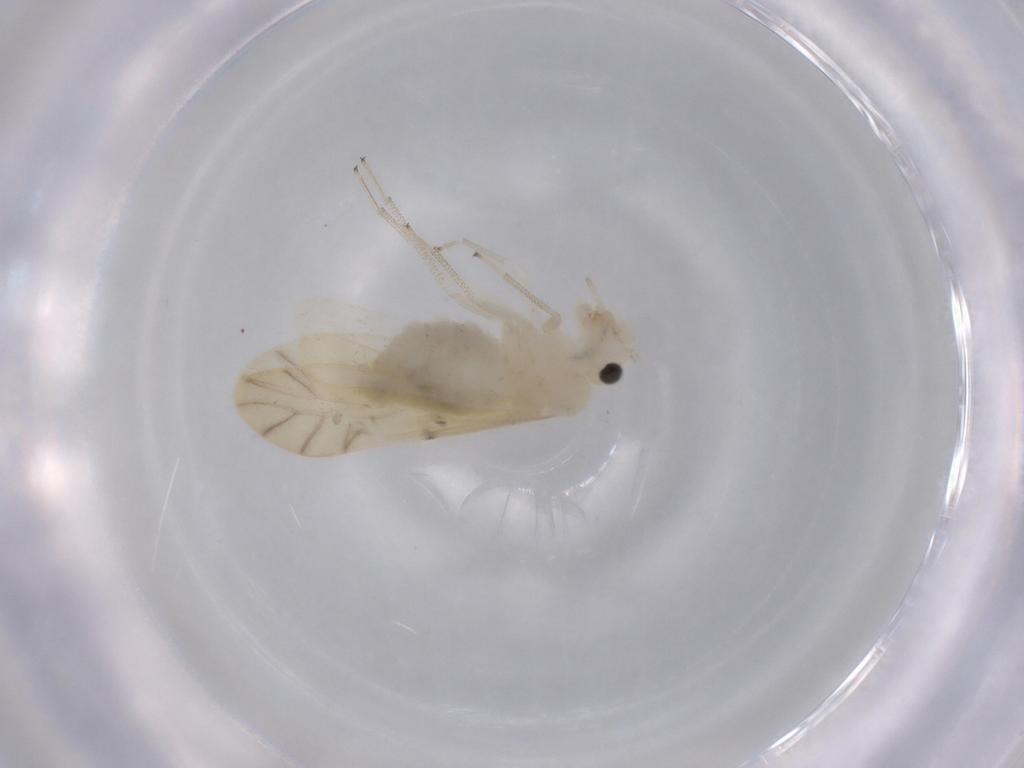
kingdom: Animalia
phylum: Arthropoda
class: Insecta
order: Psocodea
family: Caeciliusidae
